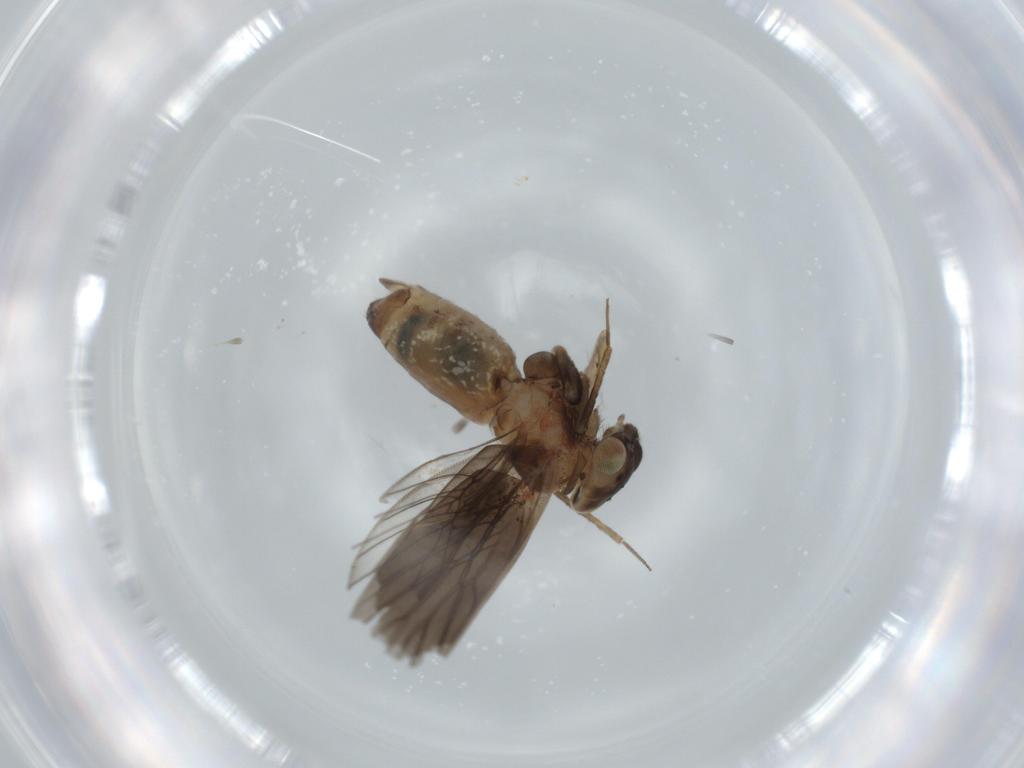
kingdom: Animalia
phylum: Arthropoda
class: Insecta
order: Psocodea
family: Lepidopsocidae
